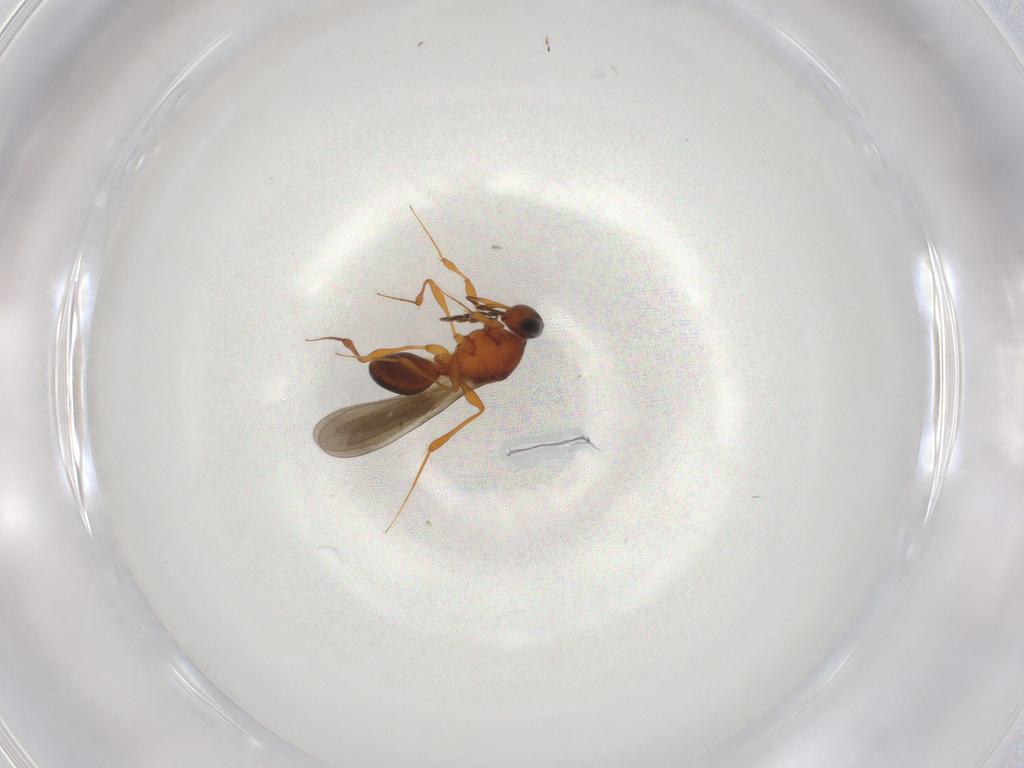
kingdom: Animalia
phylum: Arthropoda
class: Insecta
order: Hymenoptera
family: Platygastridae
